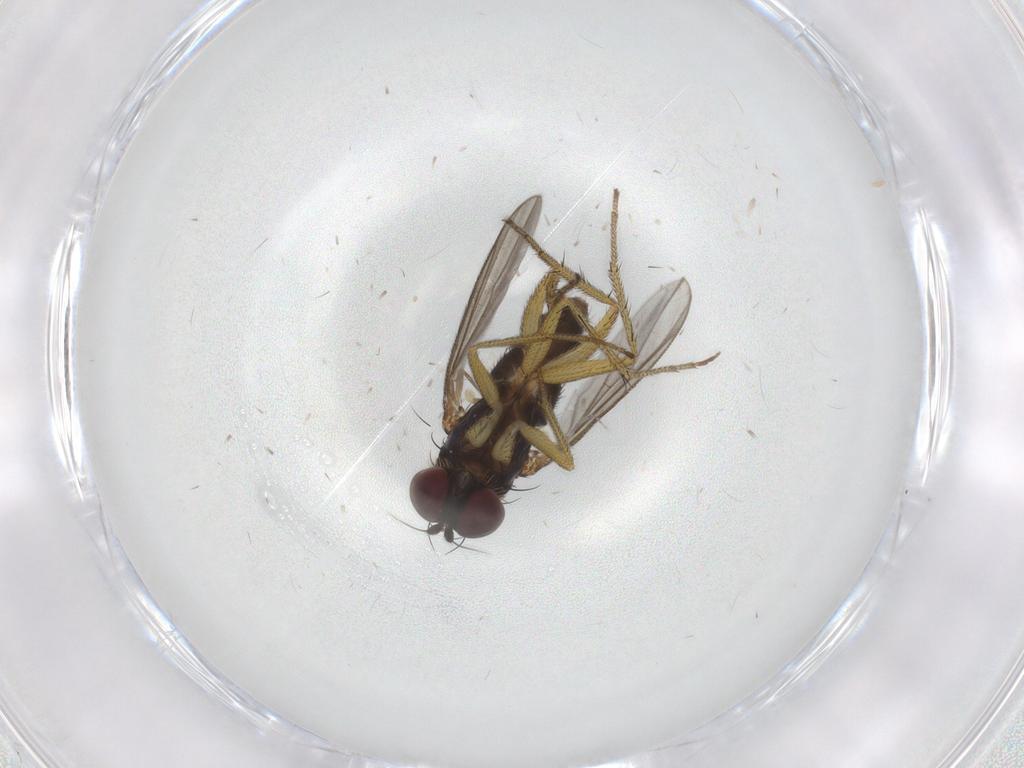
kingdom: Animalia
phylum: Arthropoda
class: Insecta
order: Diptera
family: Dolichopodidae
